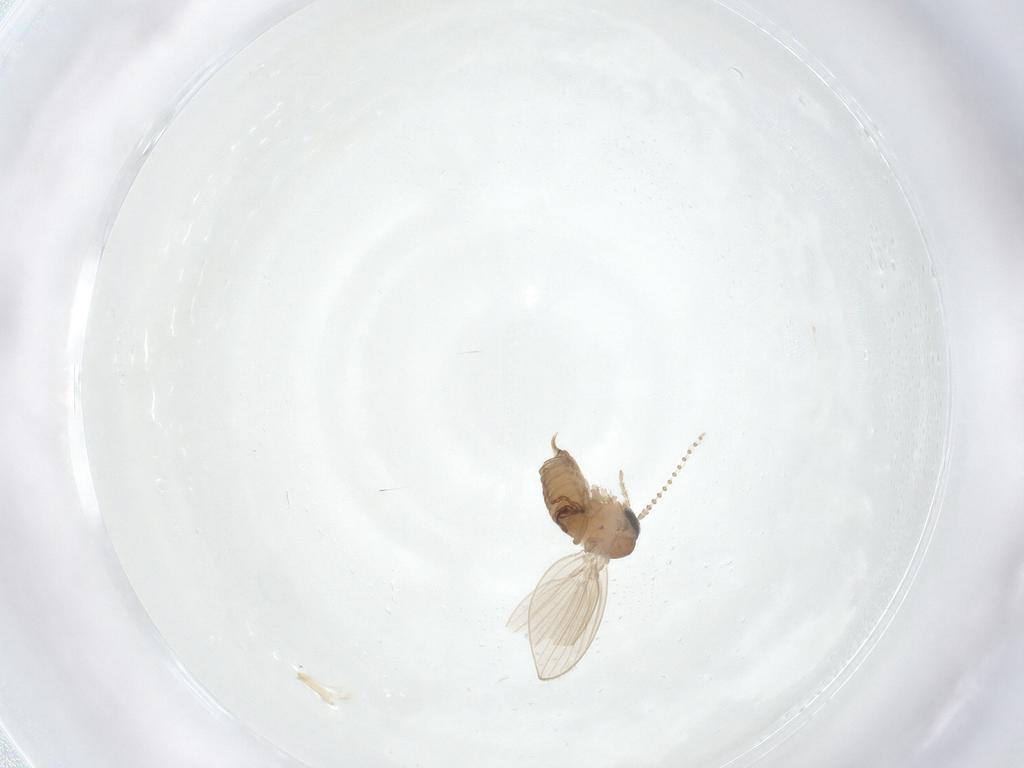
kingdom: Animalia
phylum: Arthropoda
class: Insecta
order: Diptera
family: Psychodidae
